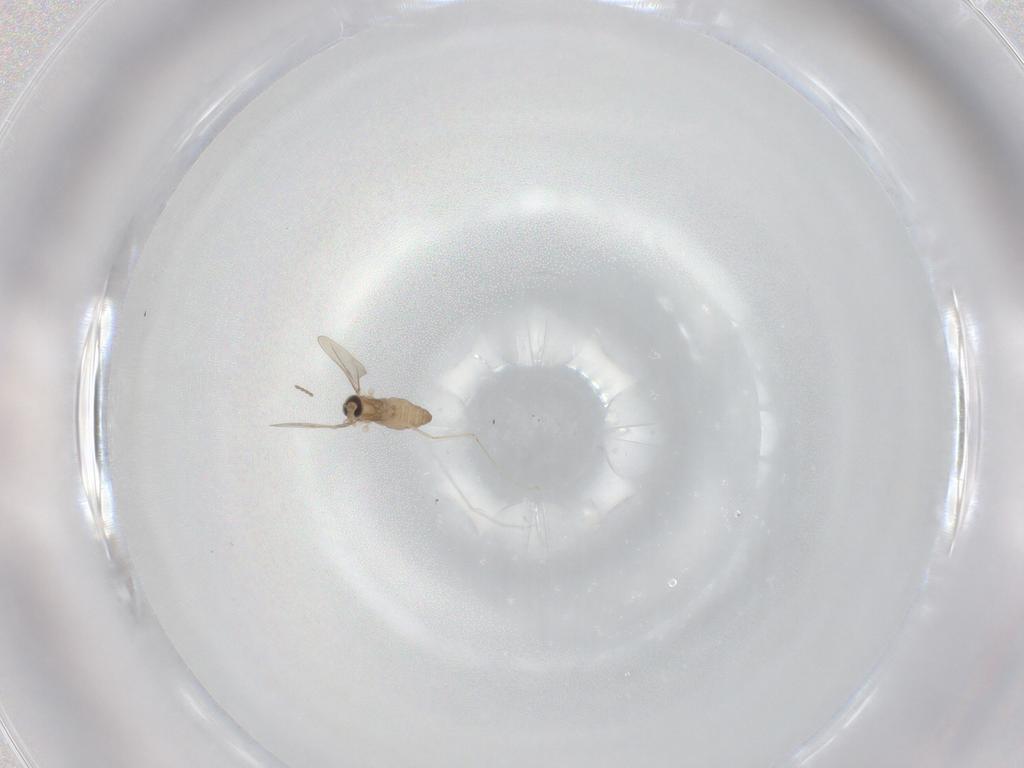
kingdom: Animalia
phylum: Arthropoda
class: Insecta
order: Diptera
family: Cecidomyiidae
